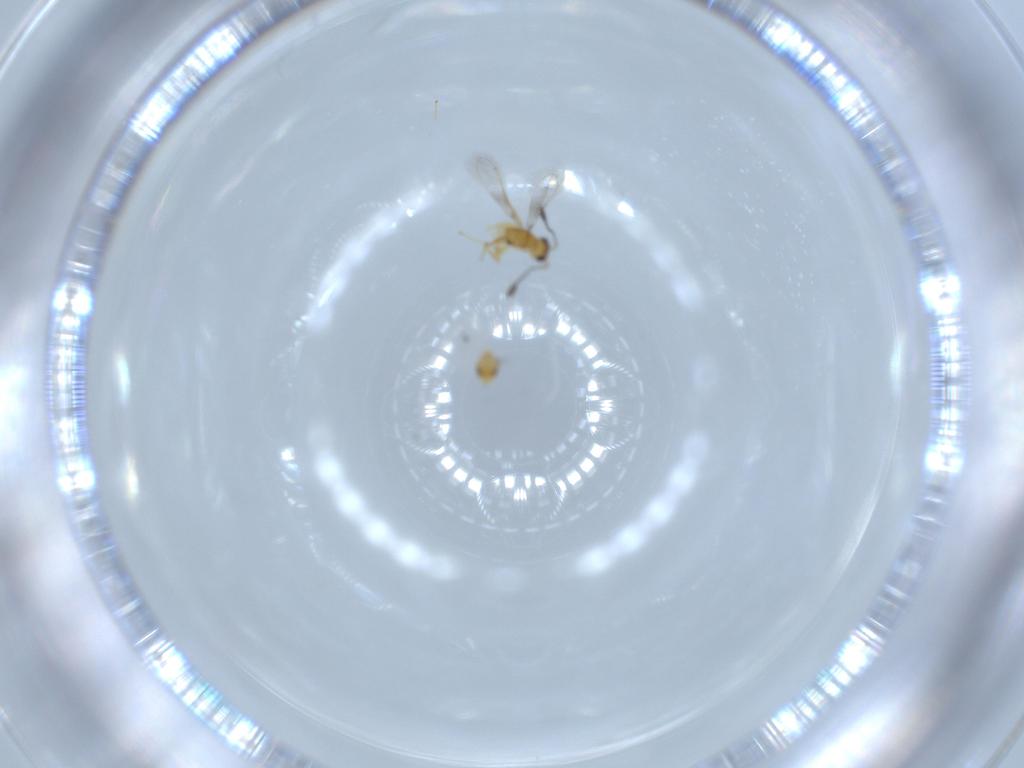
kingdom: Animalia
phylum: Arthropoda
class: Insecta
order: Hymenoptera
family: Mymaridae
